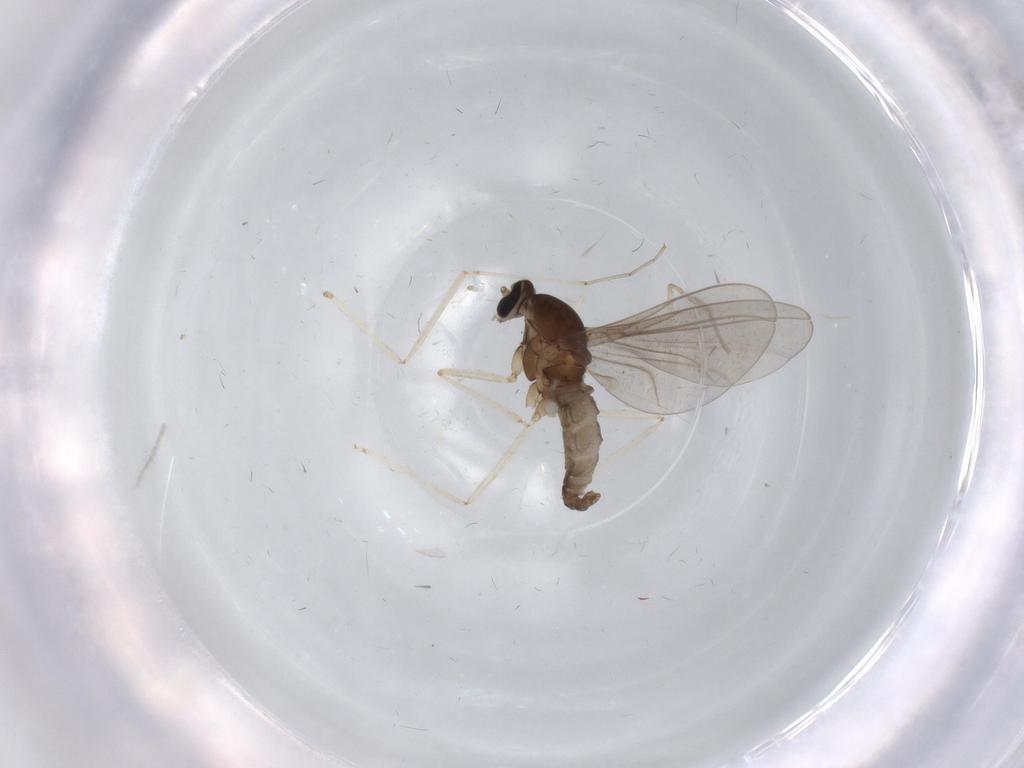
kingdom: Animalia
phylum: Arthropoda
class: Insecta
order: Diptera
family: Cecidomyiidae
